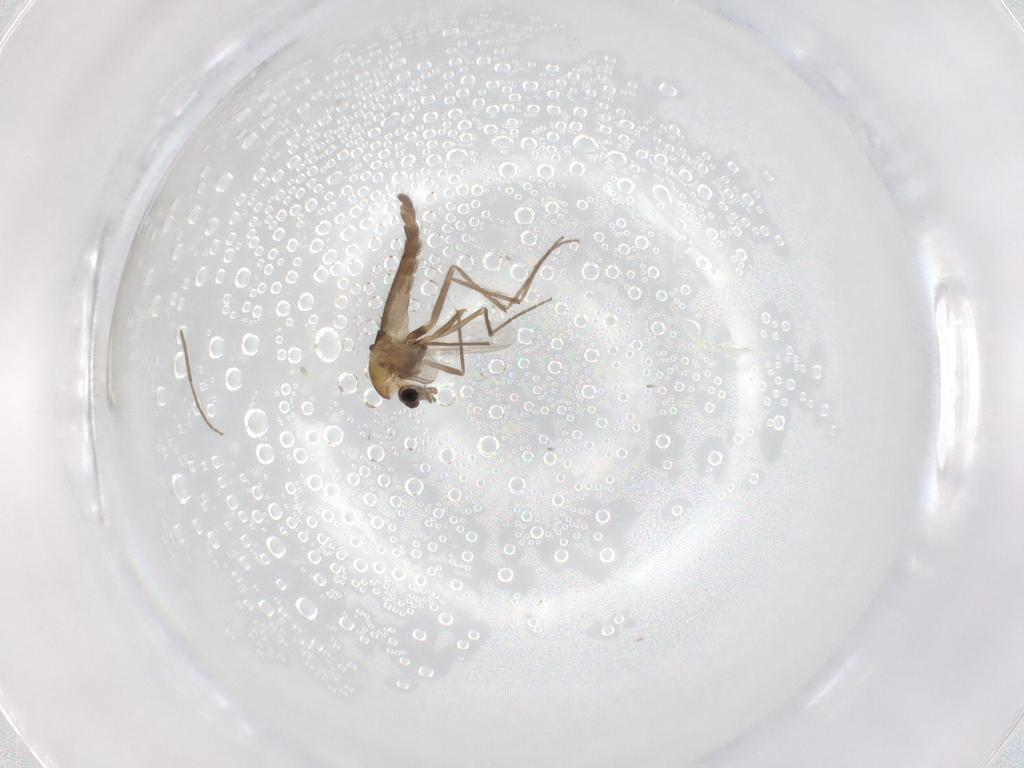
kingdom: Animalia
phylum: Arthropoda
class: Insecta
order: Diptera
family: Chironomidae
